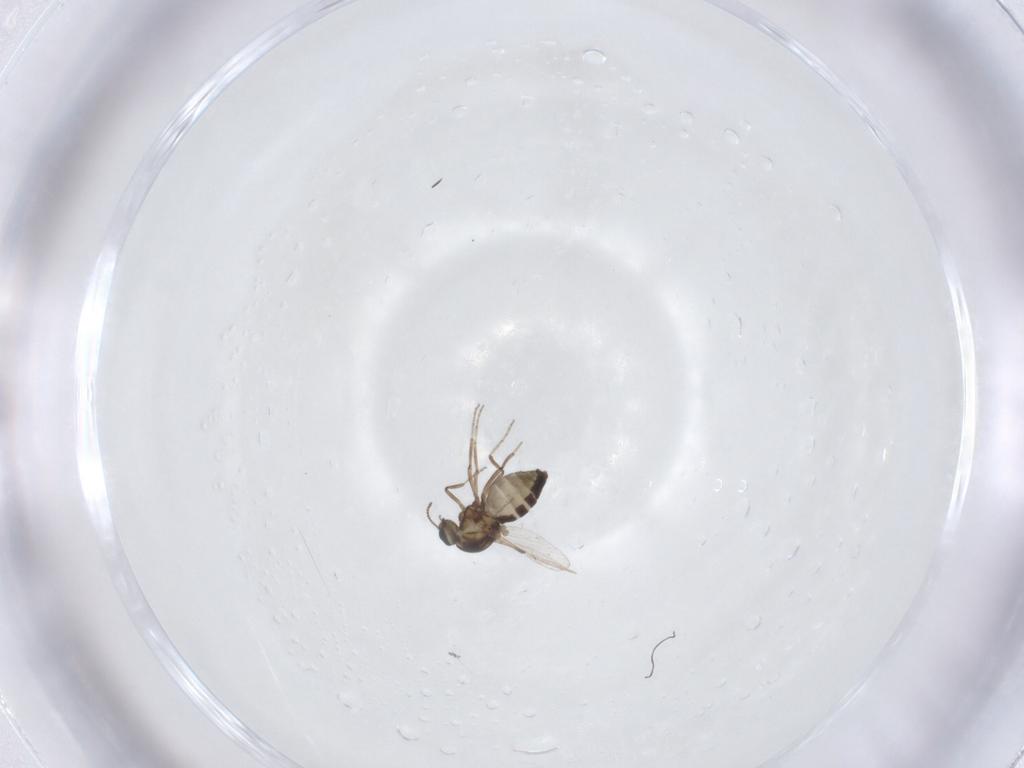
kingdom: Animalia
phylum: Arthropoda
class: Insecta
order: Diptera
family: Ceratopogonidae
